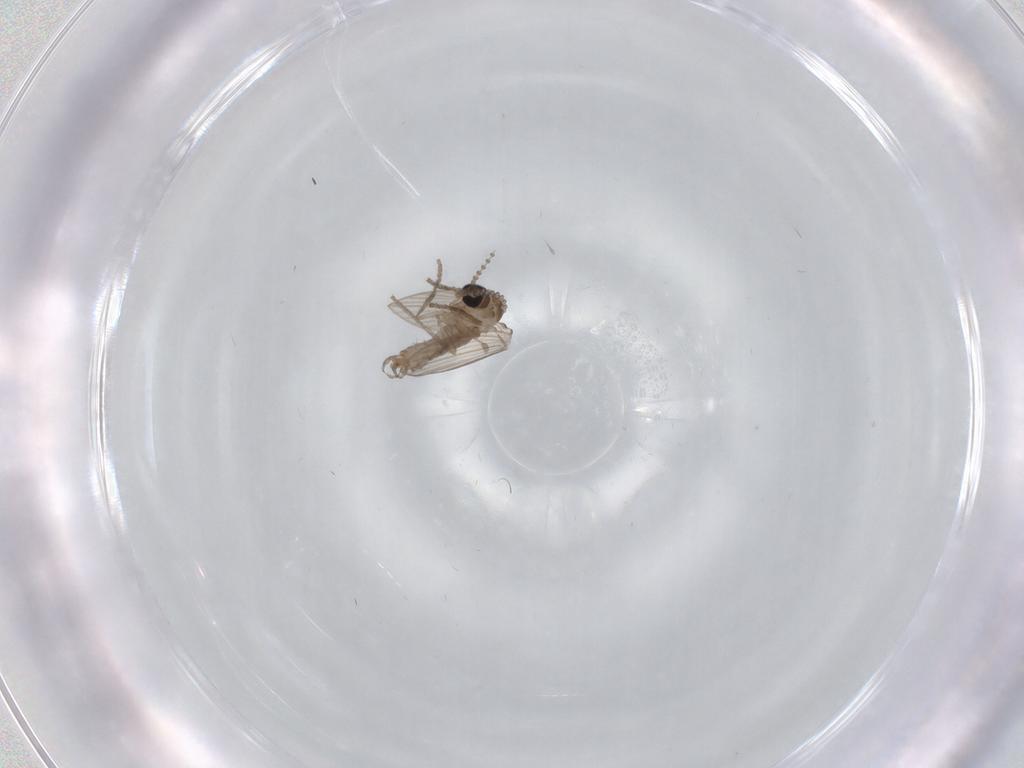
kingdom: Animalia
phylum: Arthropoda
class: Insecta
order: Diptera
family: Psychodidae
